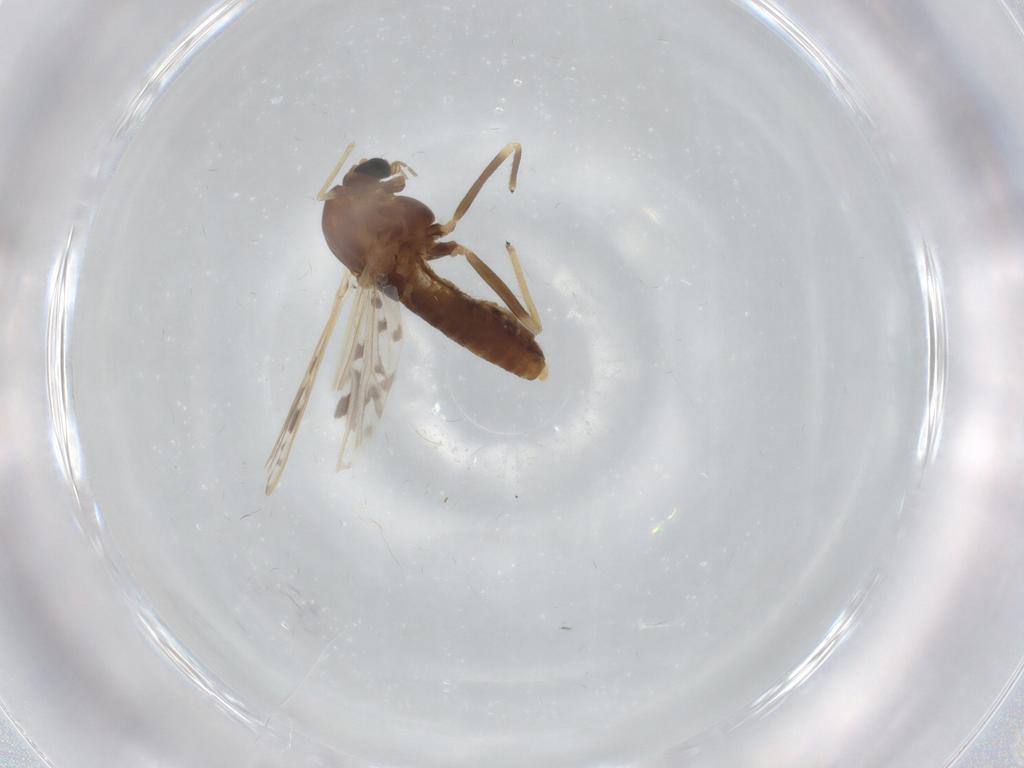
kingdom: Animalia
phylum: Arthropoda
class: Insecta
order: Diptera
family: Chironomidae
